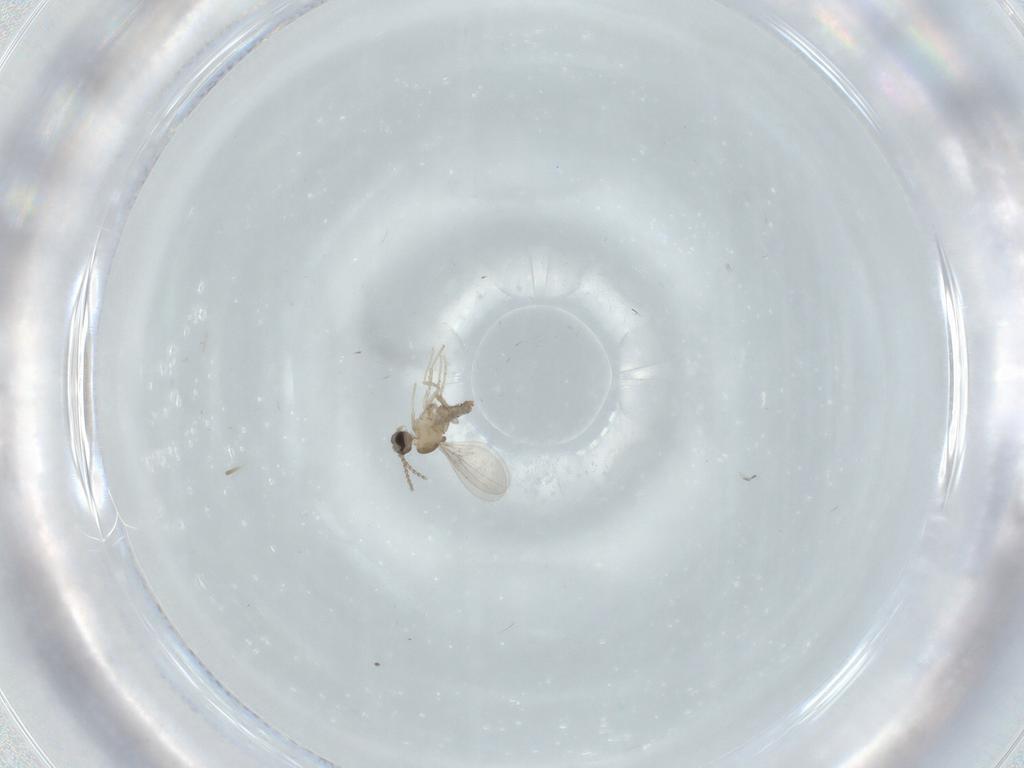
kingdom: Animalia
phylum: Arthropoda
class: Insecta
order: Diptera
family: Cecidomyiidae
